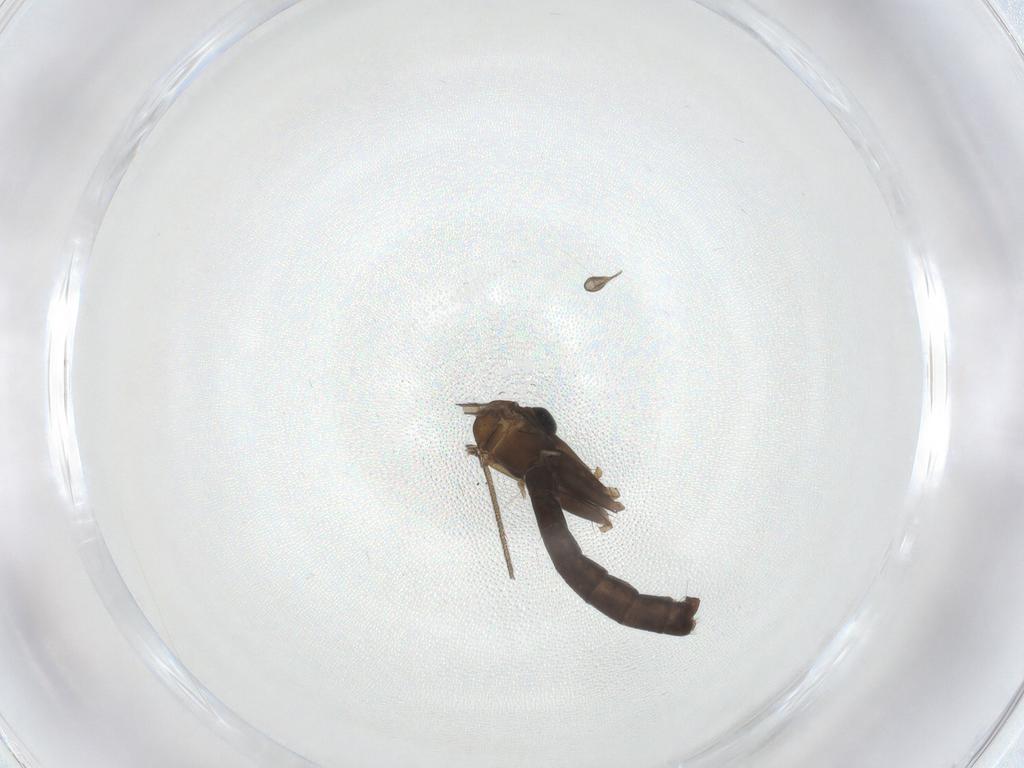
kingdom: Animalia
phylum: Arthropoda
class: Insecta
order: Diptera
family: Ditomyiidae
